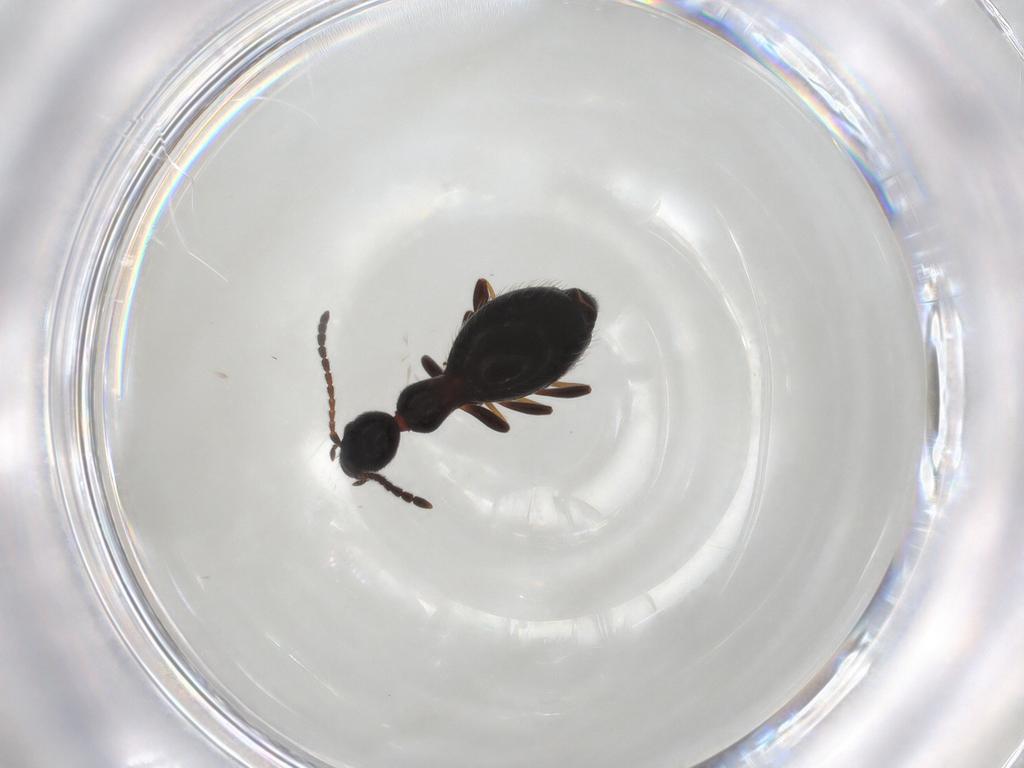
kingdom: Animalia
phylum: Arthropoda
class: Insecta
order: Coleoptera
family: Anthicidae
